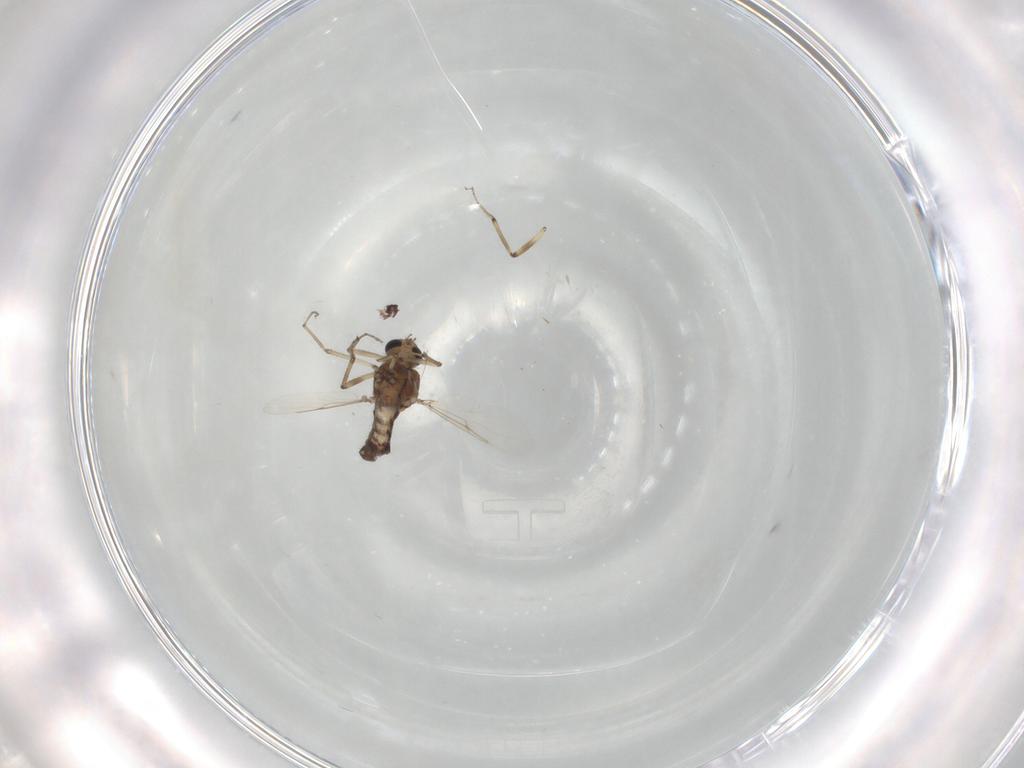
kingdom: Animalia
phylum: Arthropoda
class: Insecta
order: Diptera
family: Ceratopogonidae
